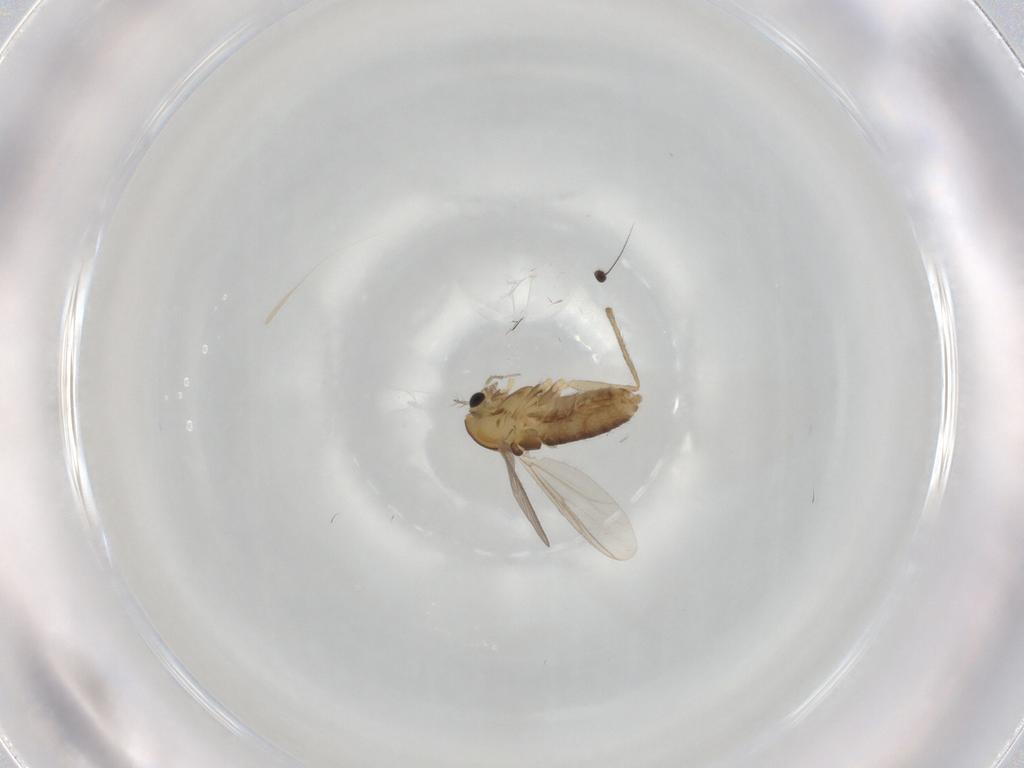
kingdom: Animalia
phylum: Arthropoda
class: Insecta
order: Diptera
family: Chironomidae
